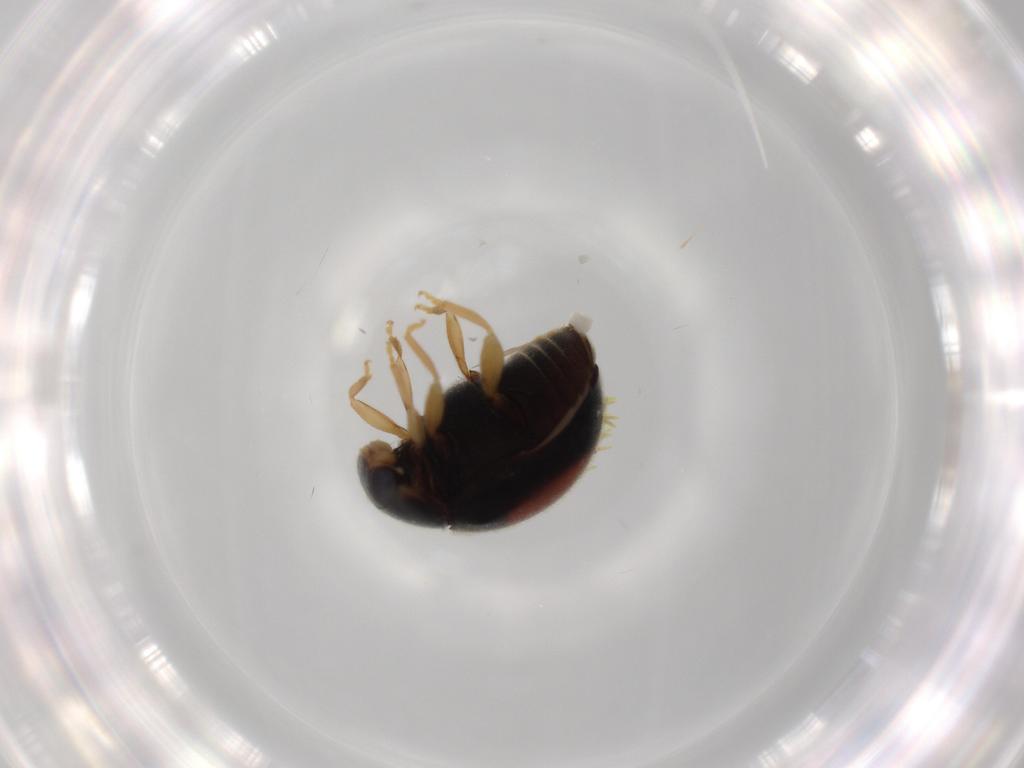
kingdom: Animalia
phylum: Arthropoda
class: Insecta
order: Coleoptera
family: Coccinellidae
